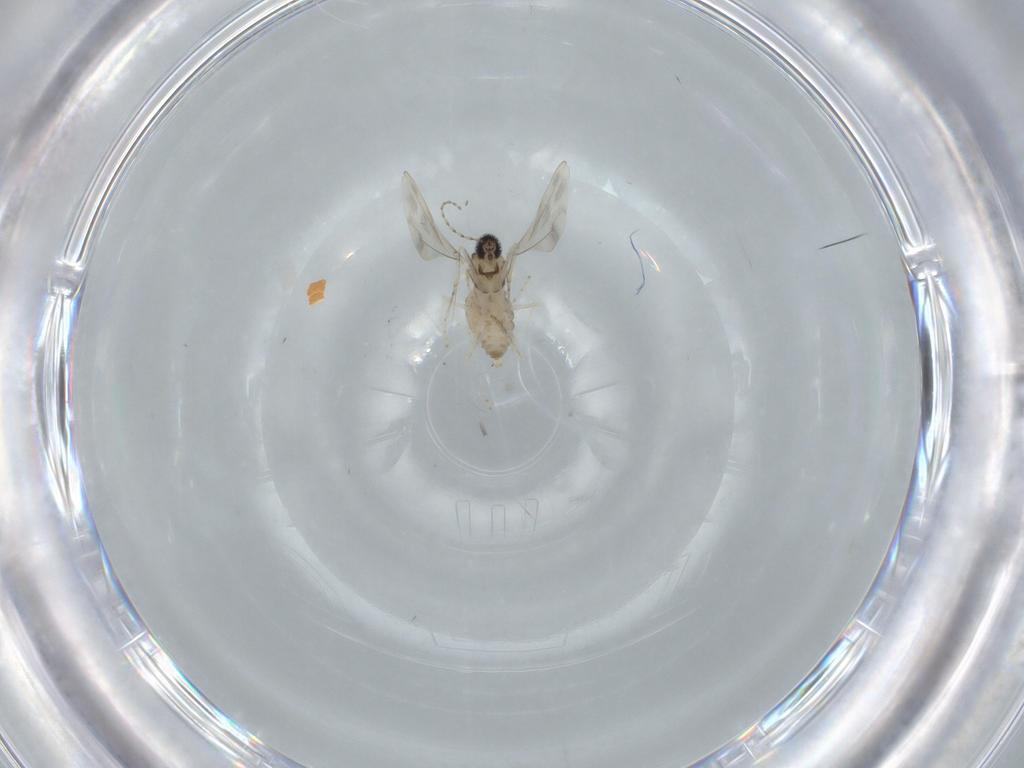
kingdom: Animalia
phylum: Arthropoda
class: Insecta
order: Diptera
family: Cecidomyiidae
